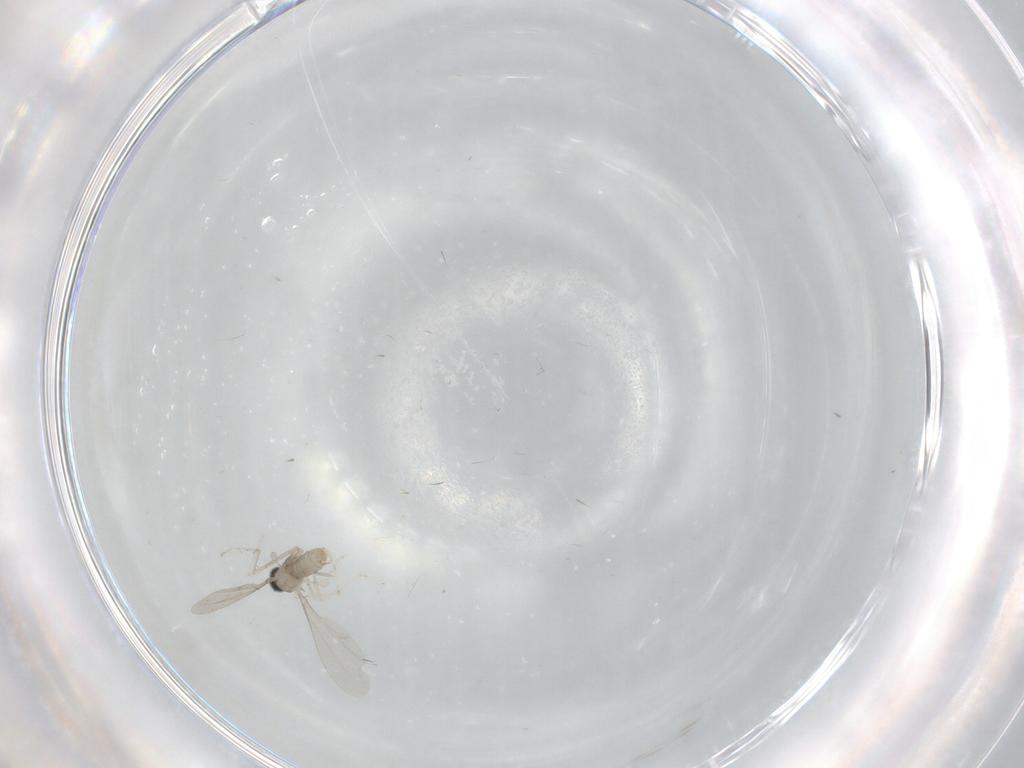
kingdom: Animalia
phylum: Arthropoda
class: Insecta
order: Diptera
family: Cecidomyiidae
